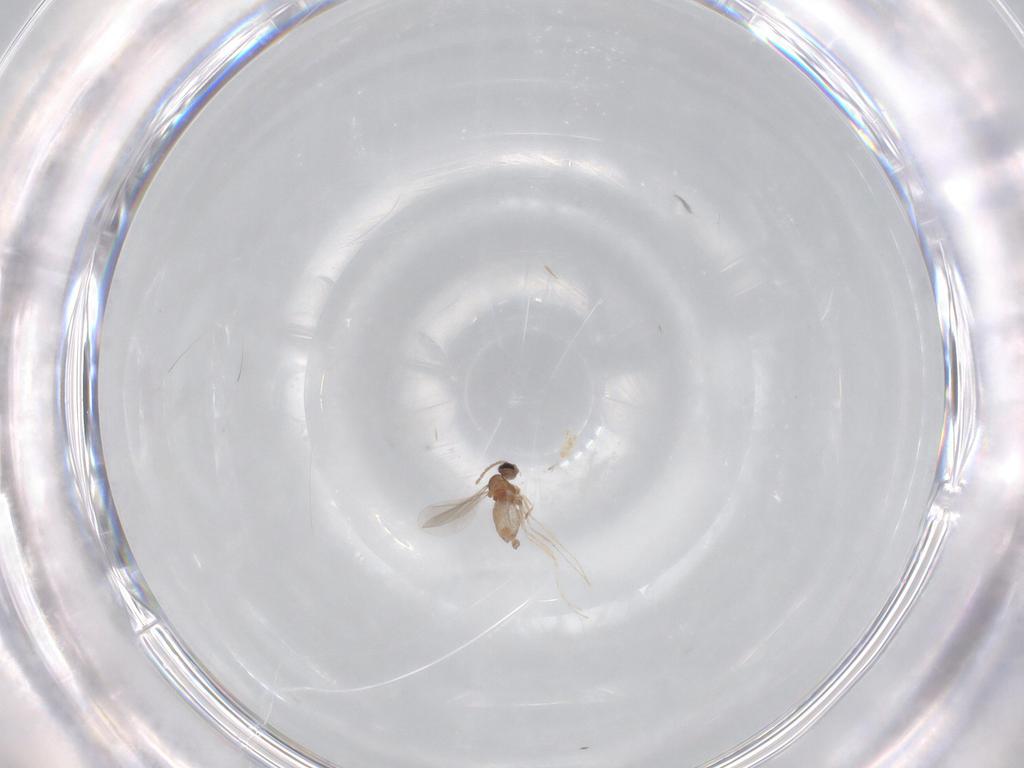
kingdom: Animalia
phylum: Arthropoda
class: Insecta
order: Diptera
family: Cecidomyiidae
